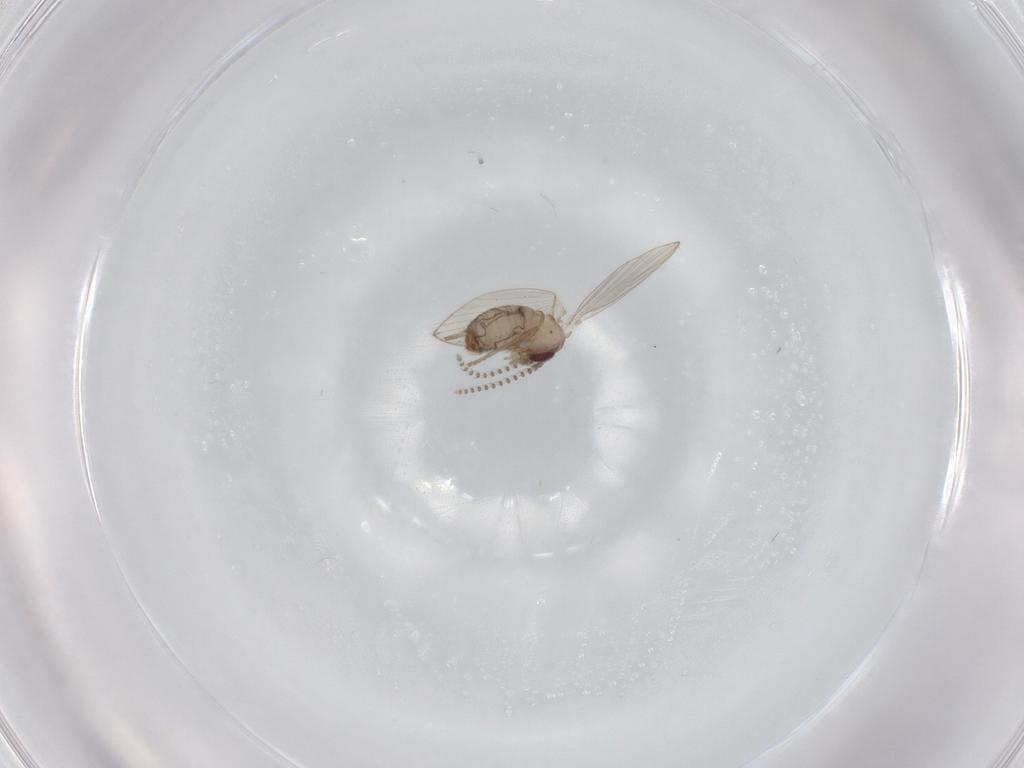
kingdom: Animalia
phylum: Arthropoda
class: Insecta
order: Diptera
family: Psychodidae
